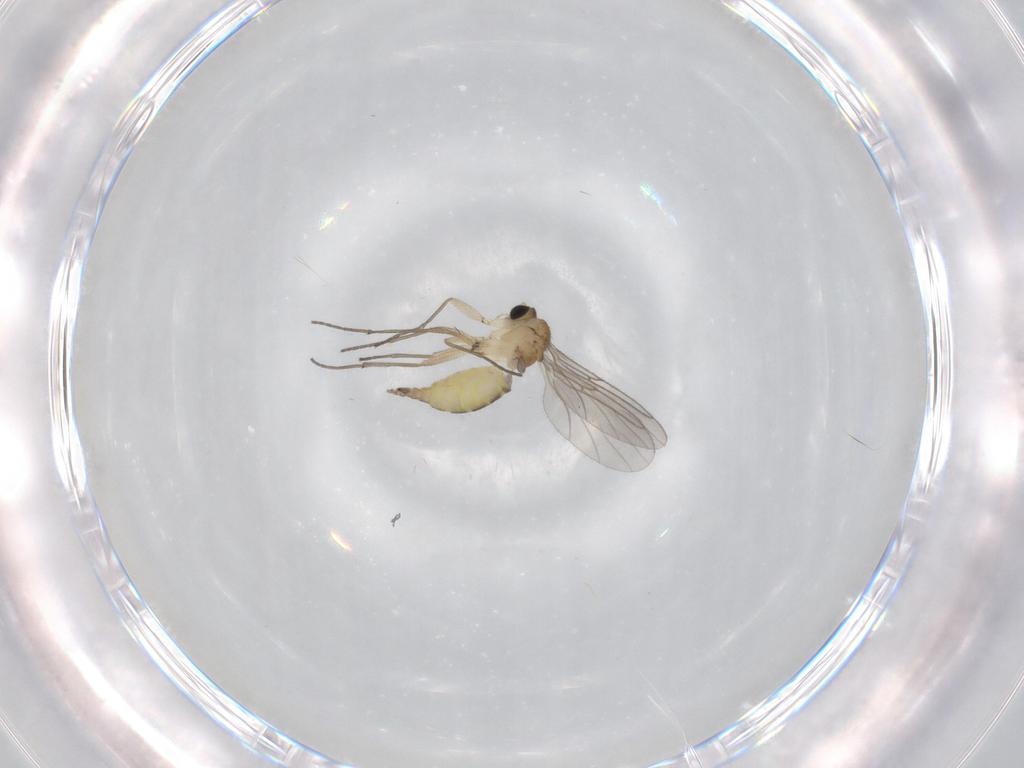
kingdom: Animalia
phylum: Arthropoda
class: Insecta
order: Diptera
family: Sciaridae
